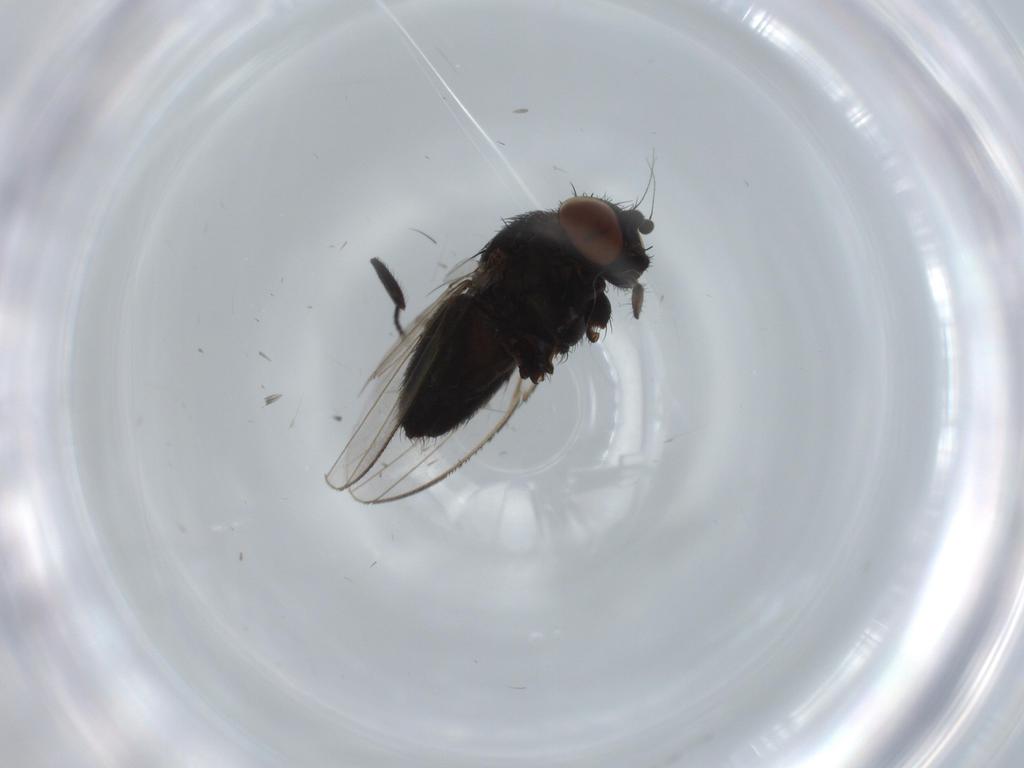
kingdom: Animalia
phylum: Arthropoda
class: Insecta
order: Diptera
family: Milichiidae
